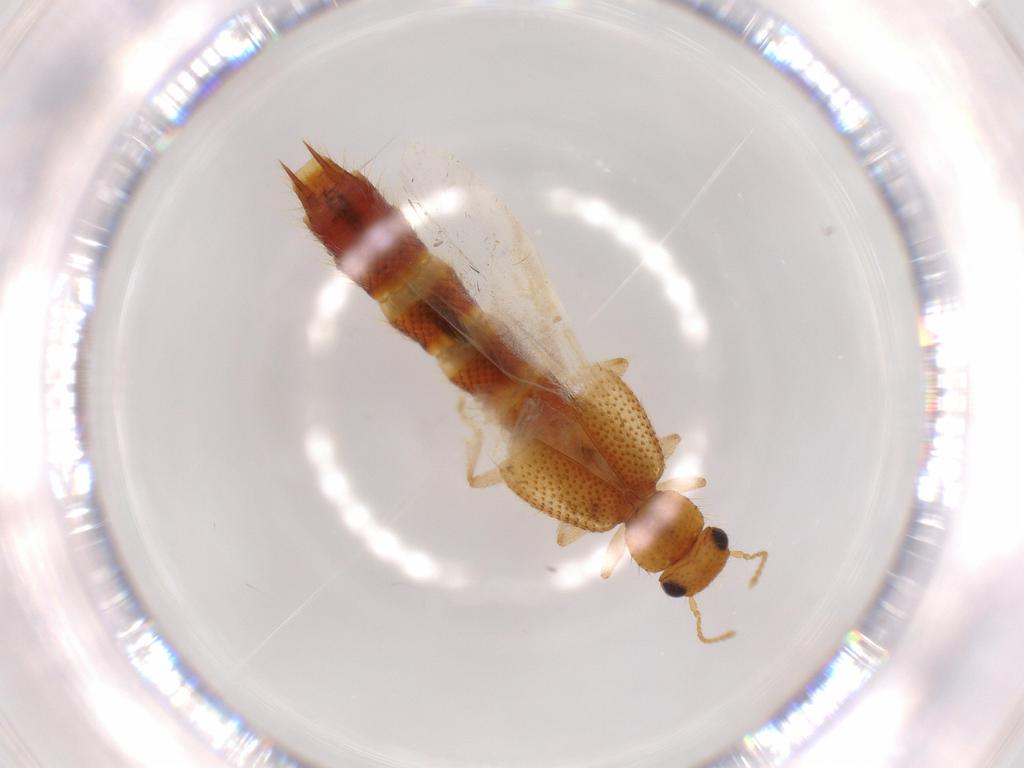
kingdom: Animalia
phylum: Arthropoda
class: Insecta
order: Coleoptera
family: Staphylinidae
